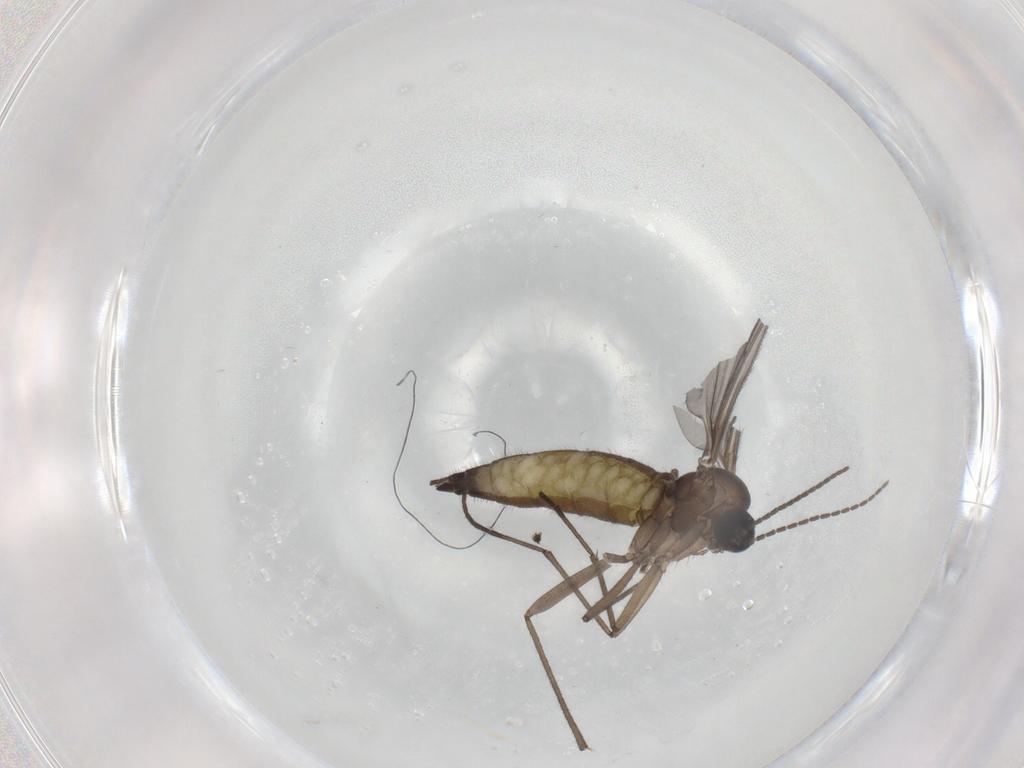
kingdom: Animalia
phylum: Arthropoda
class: Insecta
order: Diptera
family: Sciaridae
